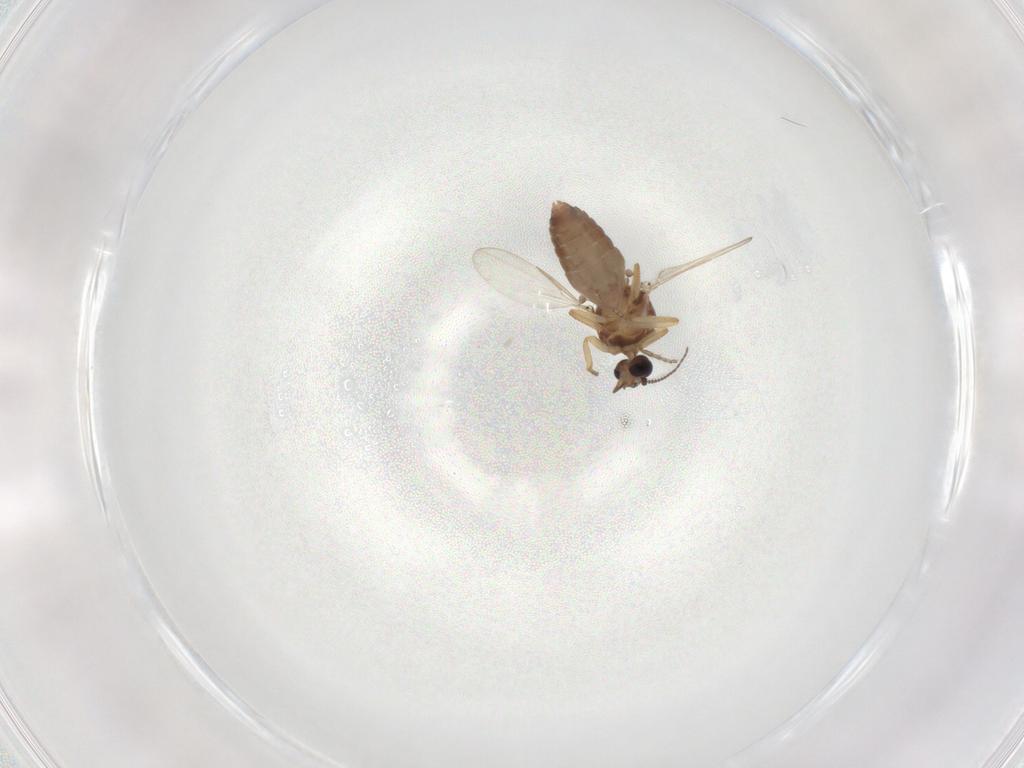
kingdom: Animalia
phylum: Arthropoda
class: Insecta
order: Diptera
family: Ceratopogonidae
